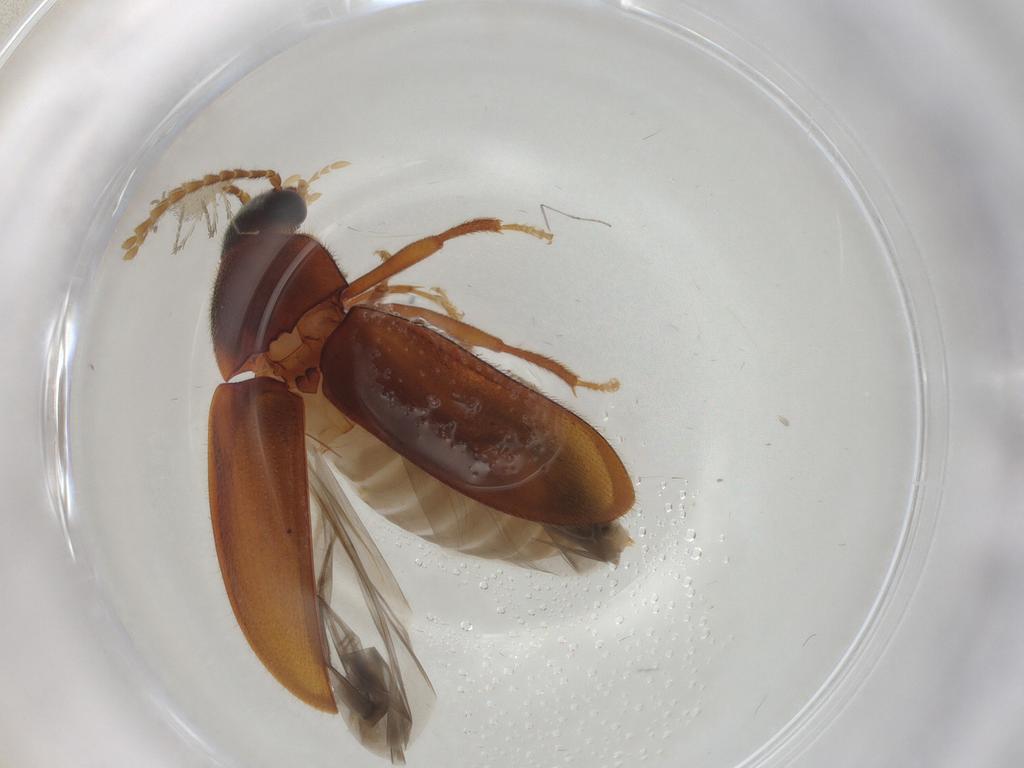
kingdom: Animalia
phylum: Arthropoda
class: Insecta
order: Coleoptera
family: Ptilodactylidae
